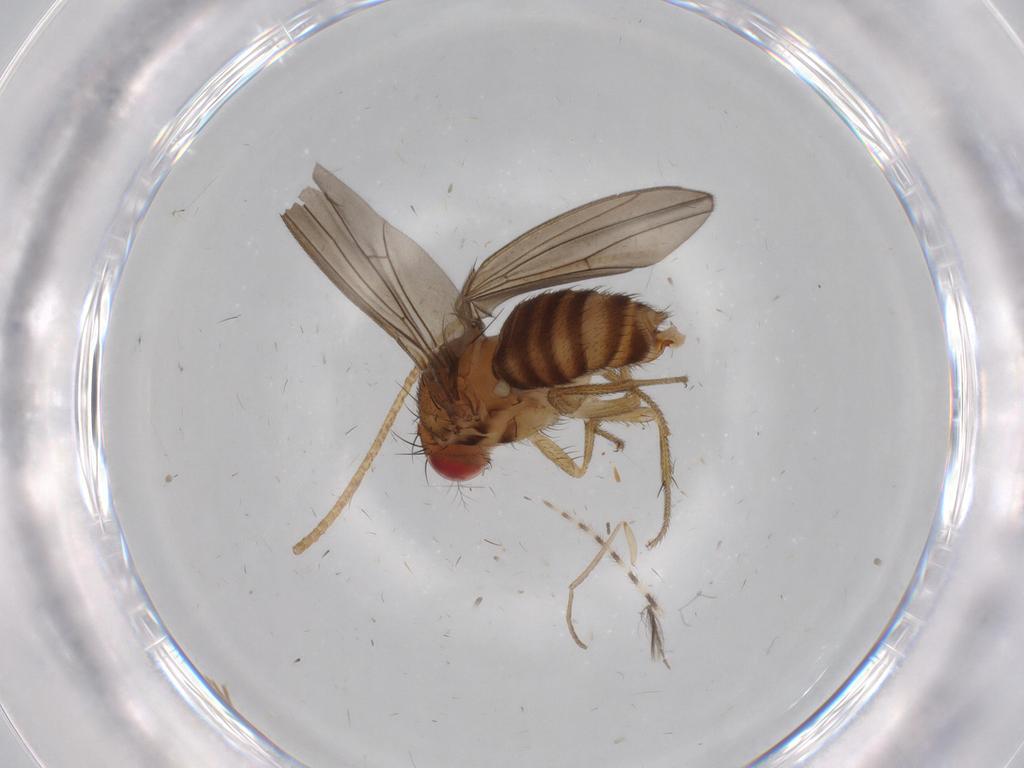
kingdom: Animalia
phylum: Arthropoda
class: Insecta
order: Diptera
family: Drosophilidae
